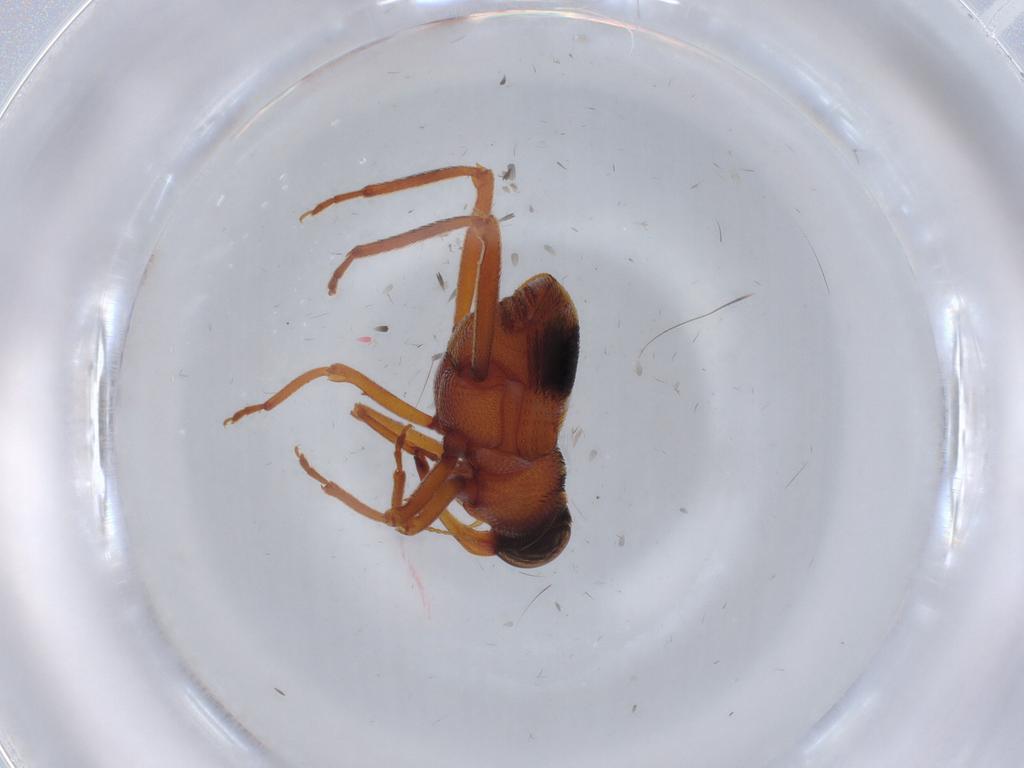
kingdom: Animalia
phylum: Arthropoda
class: Insecta
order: Coleoptera
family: Curculionidae
